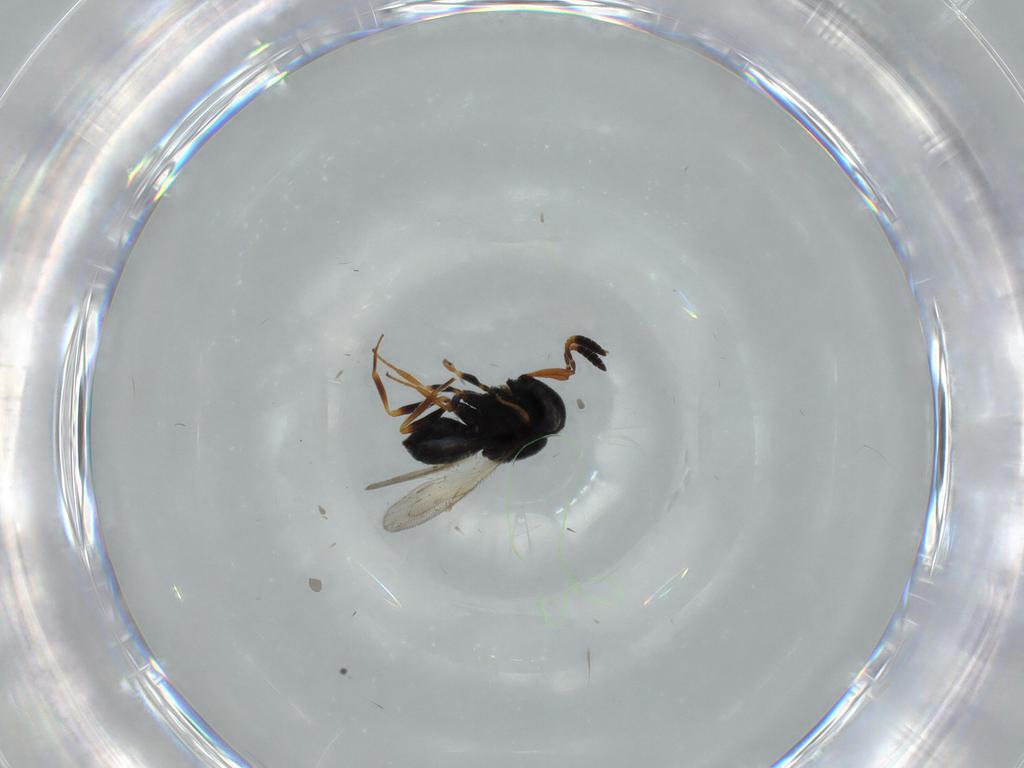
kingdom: Animalia
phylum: Arthropoda
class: Insecta
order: Hymenoptera
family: Scelionidae
